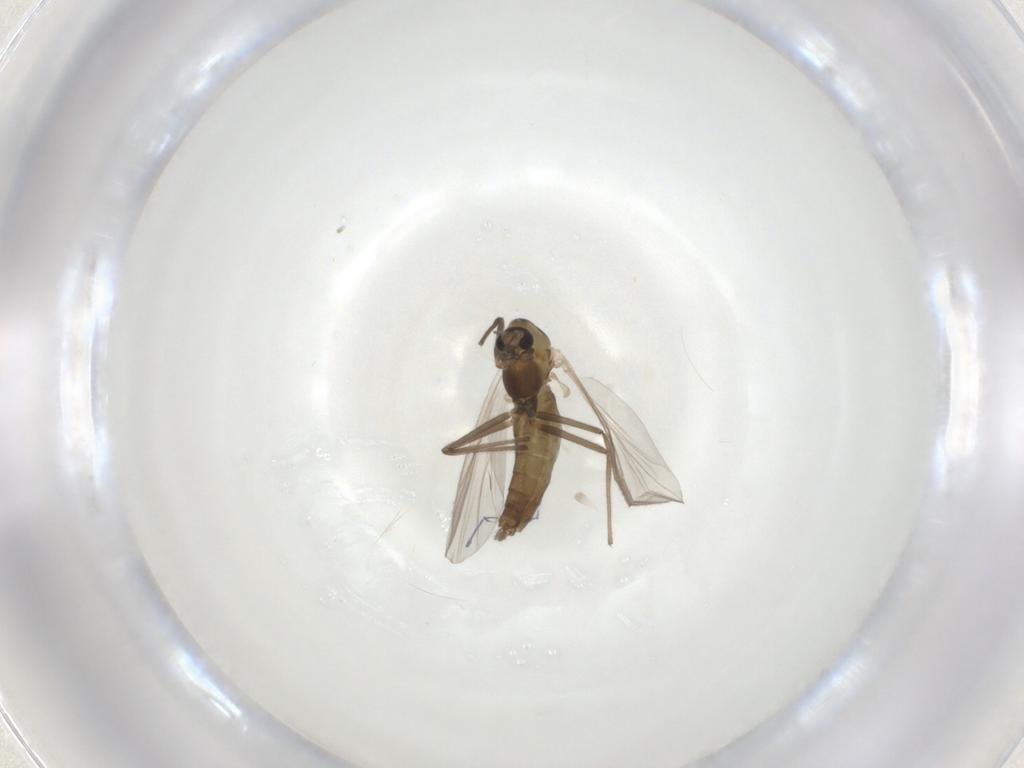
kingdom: Animalia
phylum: Arthropoda
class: Insecta
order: Diptera
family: Chironomidae
